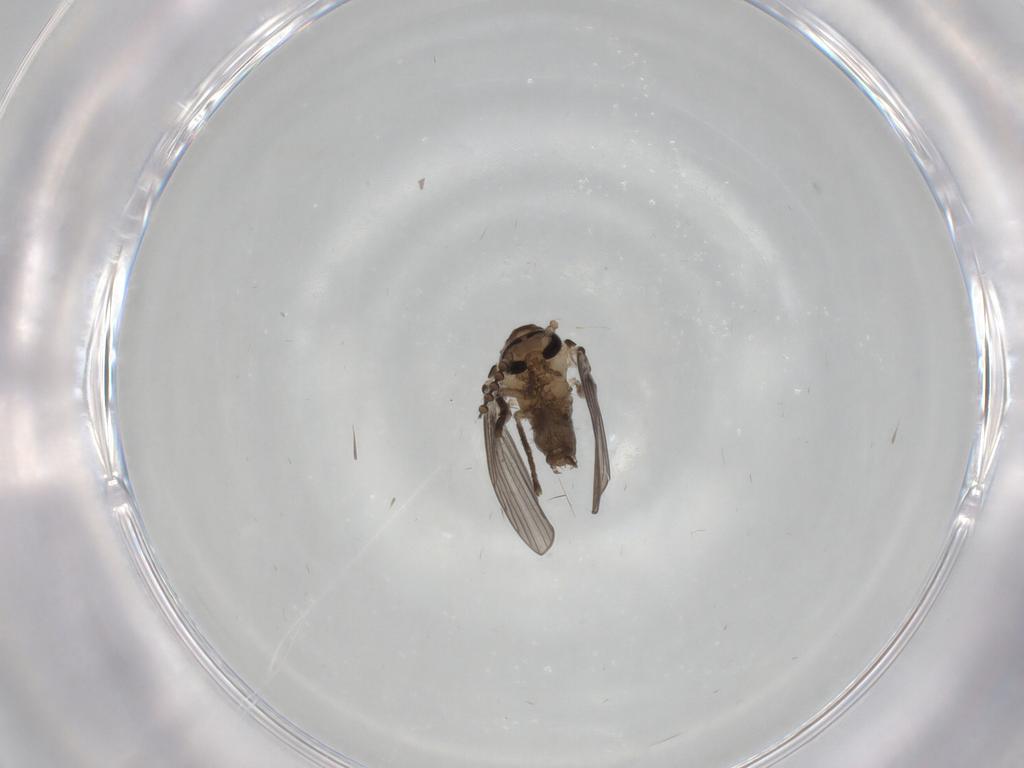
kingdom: Animalia
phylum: Arthropoda
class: Insecta
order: Diptera
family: Psychodidae
